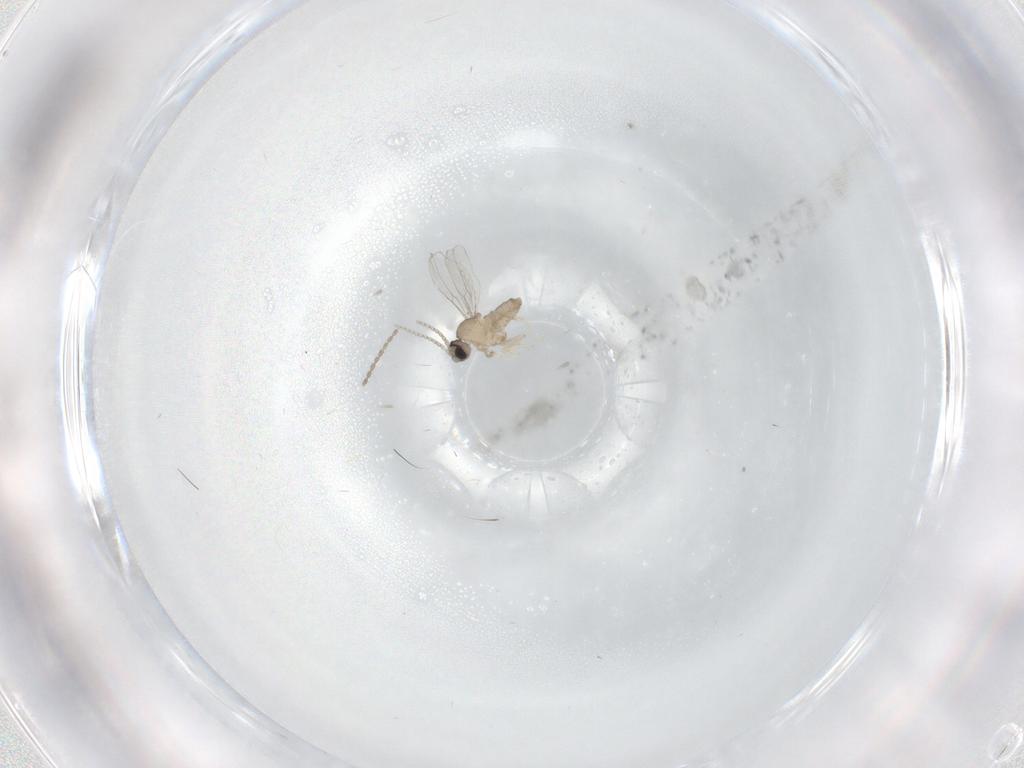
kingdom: Animalia
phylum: Arthropoda
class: Insecta
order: Diptera
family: Cecidomyiidae
